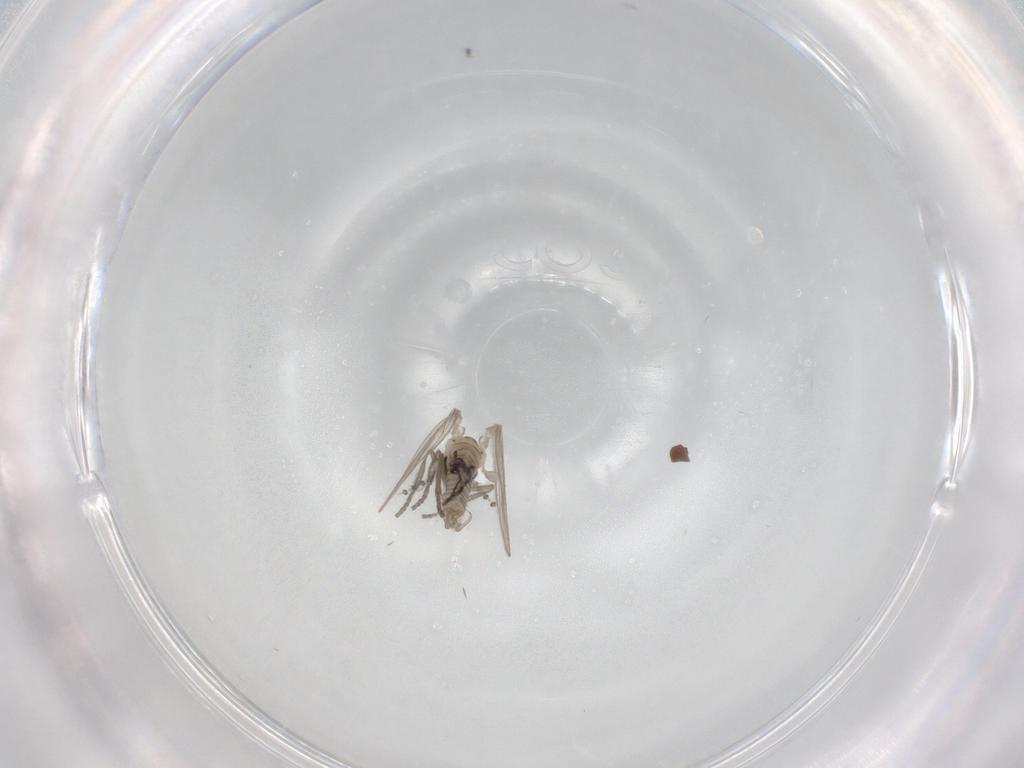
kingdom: Animalia
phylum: Arthropoda
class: Insecta
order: Diptera
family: Psychodidae
